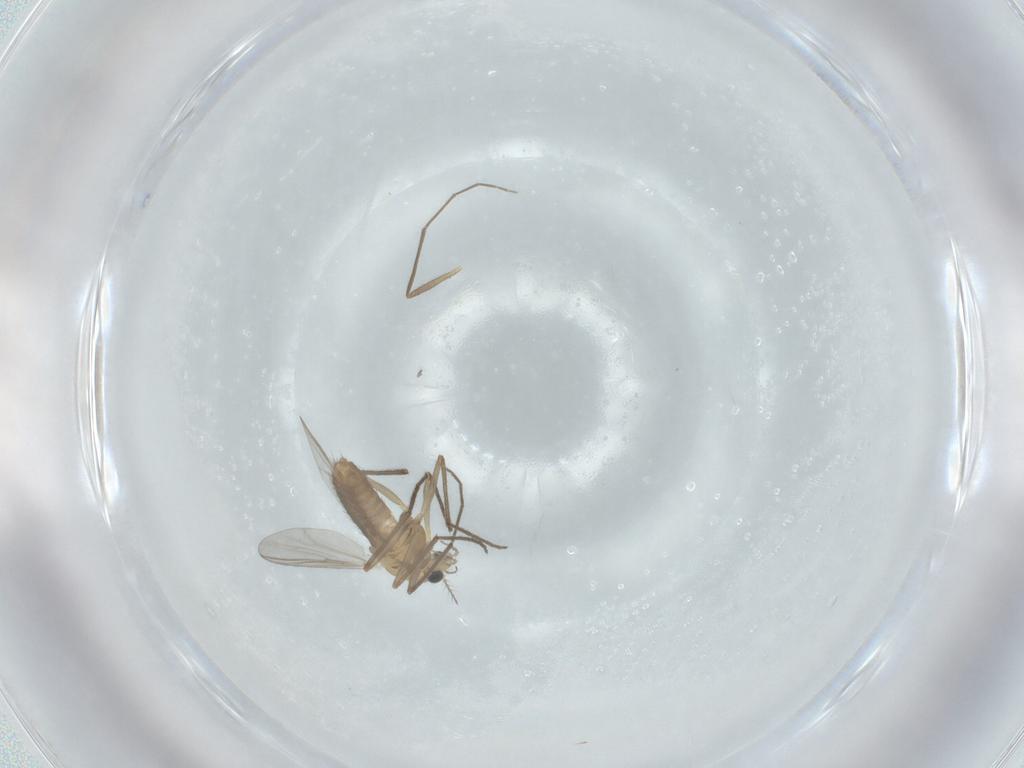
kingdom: Animalia
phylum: Arthropoda
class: Insecta
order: Diptera
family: Chironomidae
